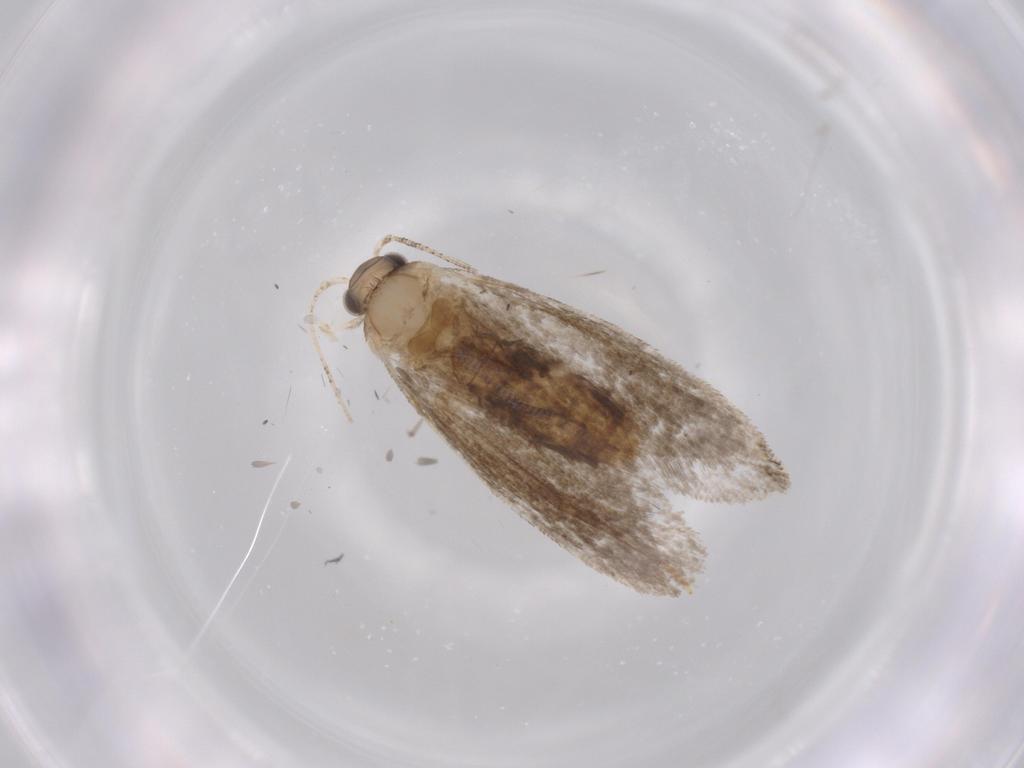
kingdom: Animalia
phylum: Arthropoda
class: Insecta
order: Lepidoptera
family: Tineidae
